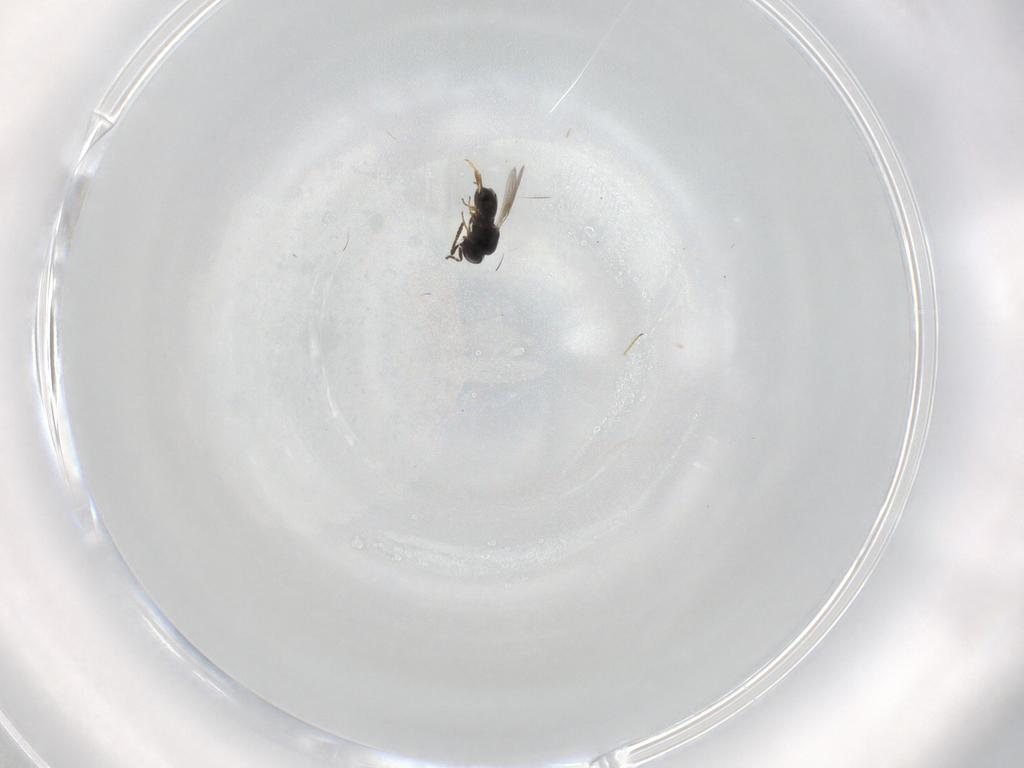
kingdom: Animalia
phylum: Arthropoda
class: Insecta
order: Hymenoptera
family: Scelionidae
